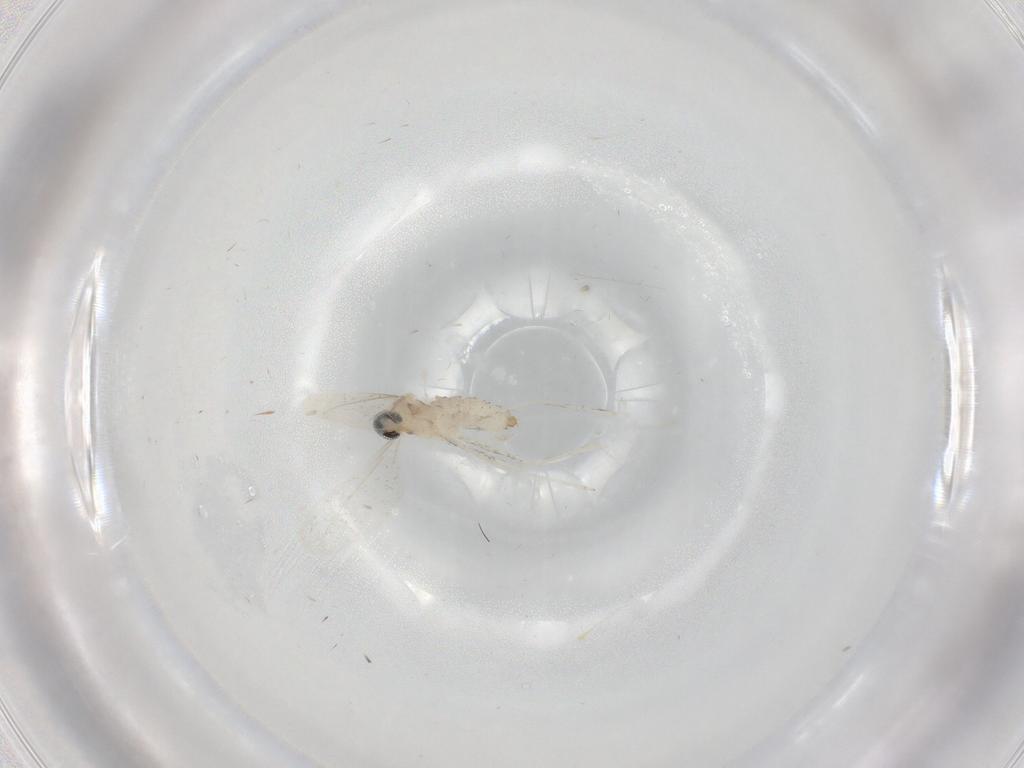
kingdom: Animalia
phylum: Arthropoda
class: Insecta
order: Diptera
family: Cecidomyiidae
